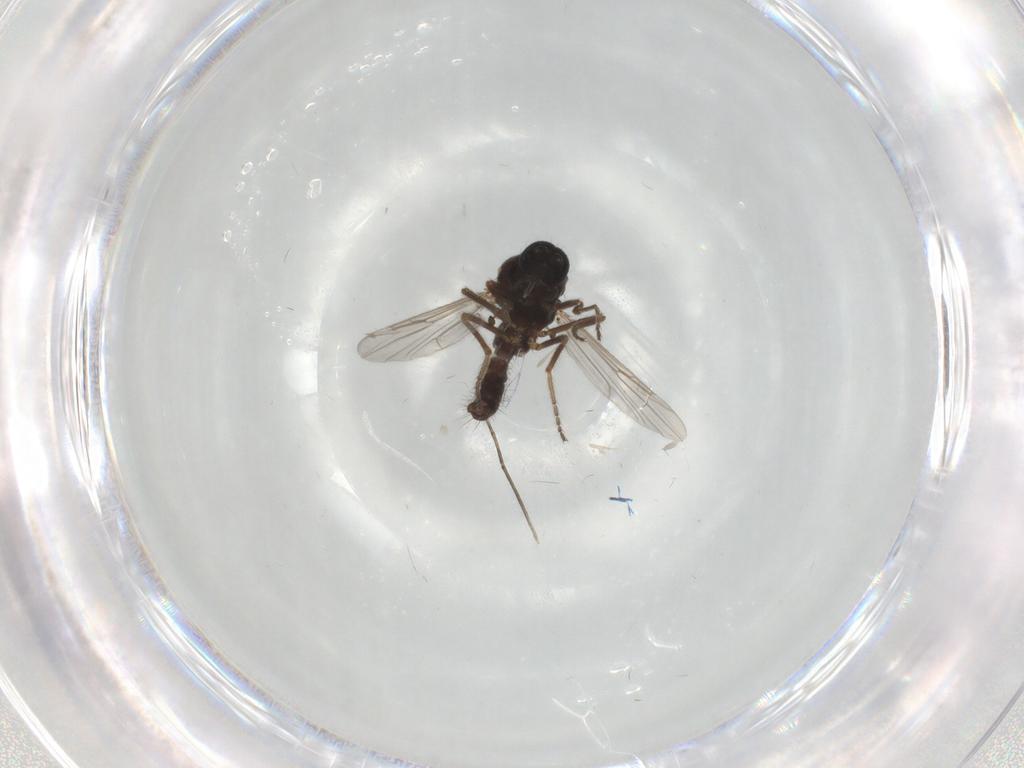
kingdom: Animalia
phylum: Arthropoda
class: Insecta
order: Diptera
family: Ceratopogonidae
